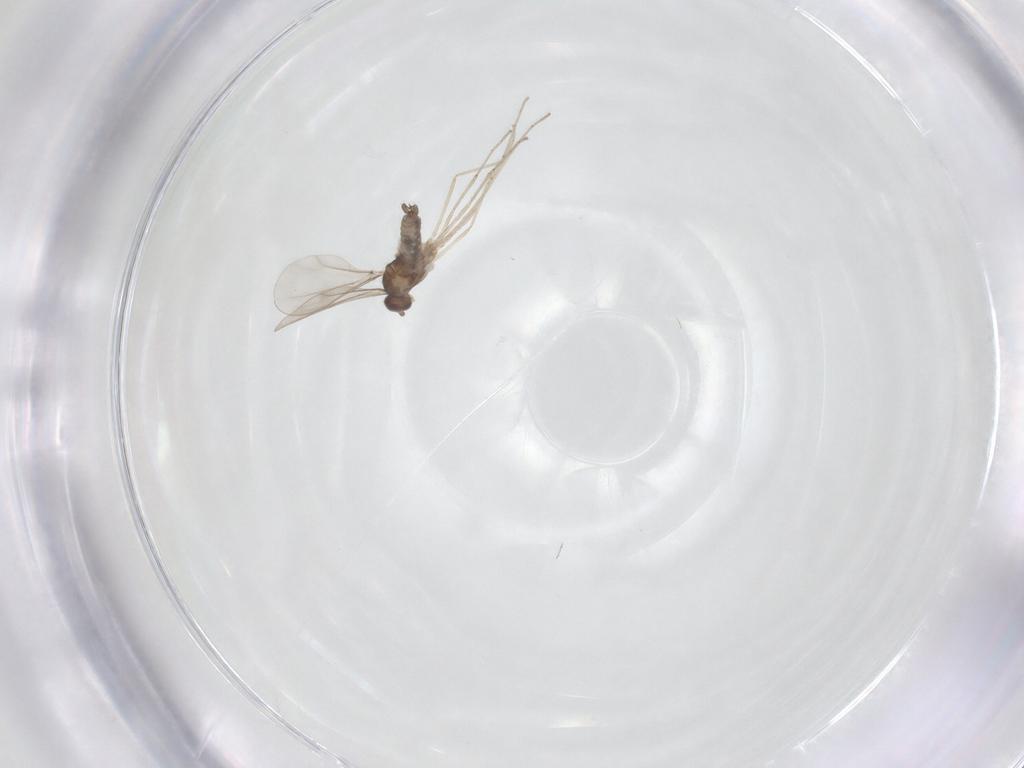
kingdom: Animalia
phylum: Arthropoda
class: Insecta
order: Diptera
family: Cecidomyiidae
